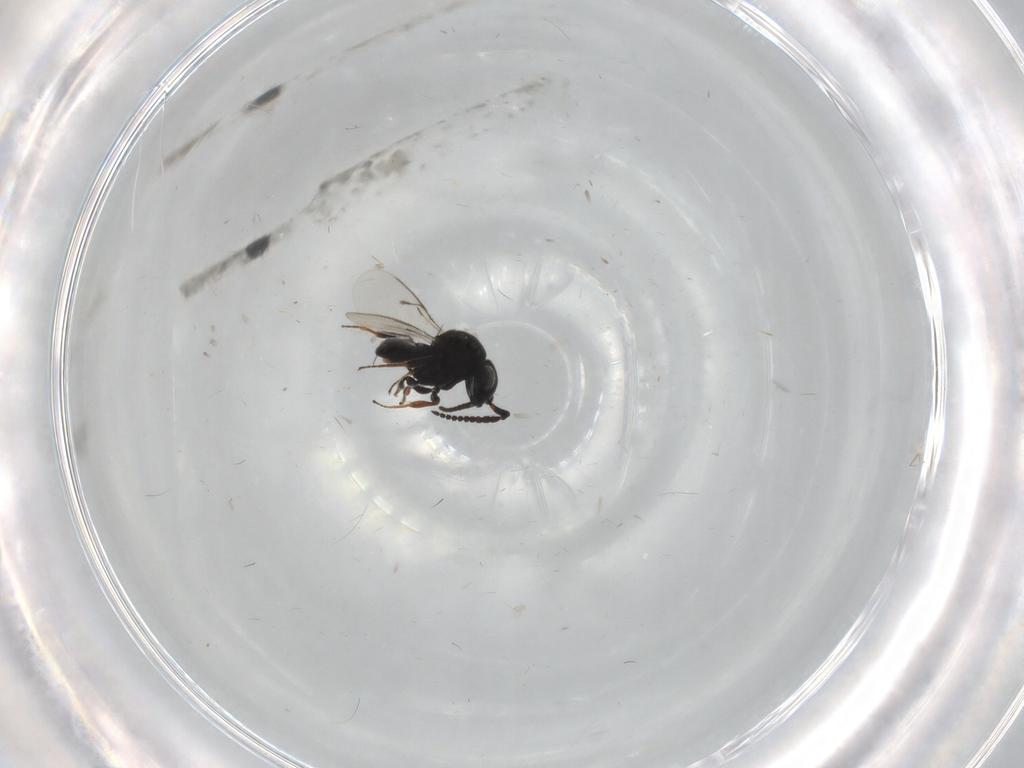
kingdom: Animalia
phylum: Arthropoda
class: Insecta
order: Hymenoptera
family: Scelionidae
